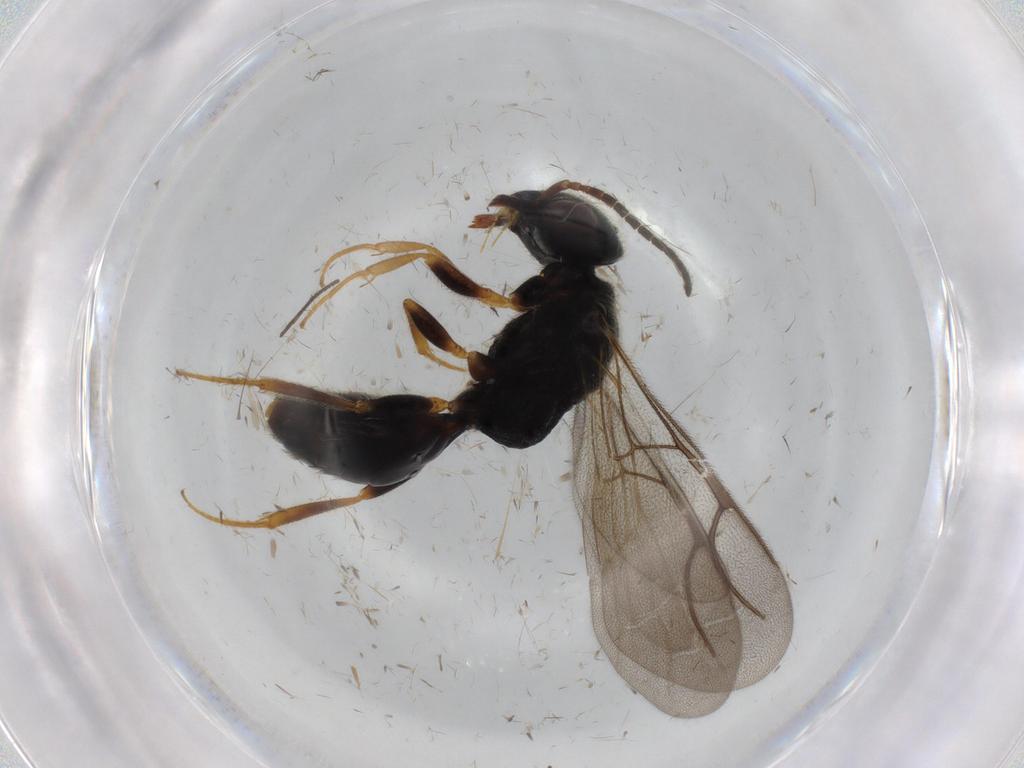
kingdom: Animalia
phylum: Arthropoda
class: Insecta
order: Hymenoptera
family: Bethylidae
